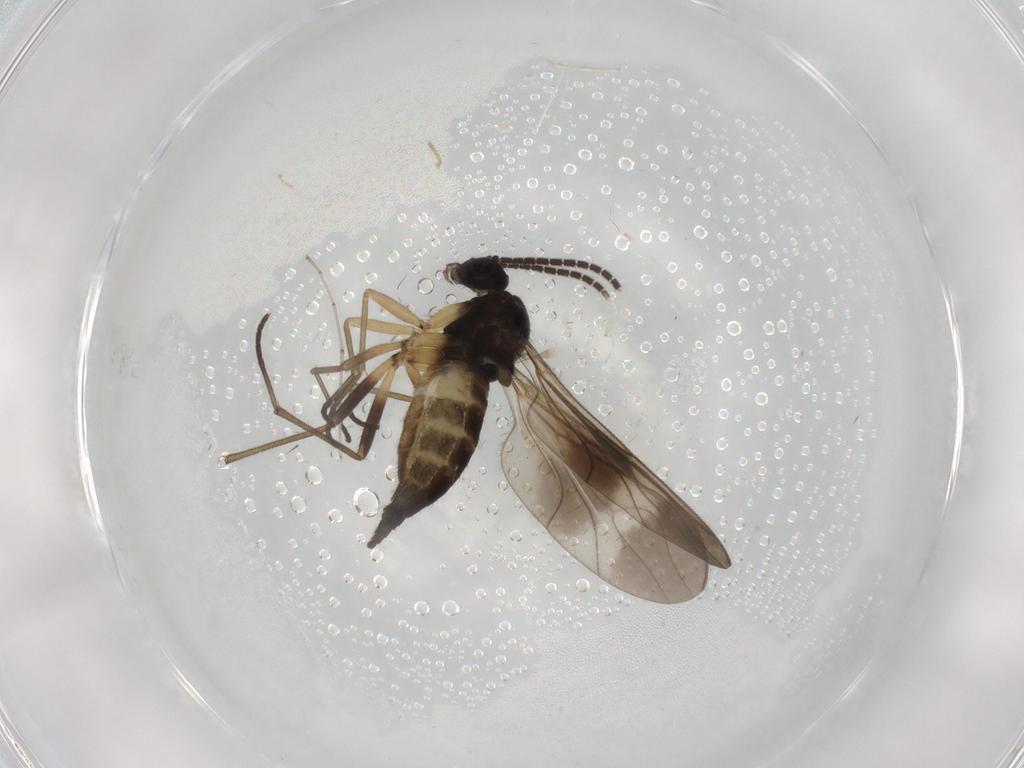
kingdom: Animalia
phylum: Arthropoda
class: Insecta
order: Diptera
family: Sciaridae
